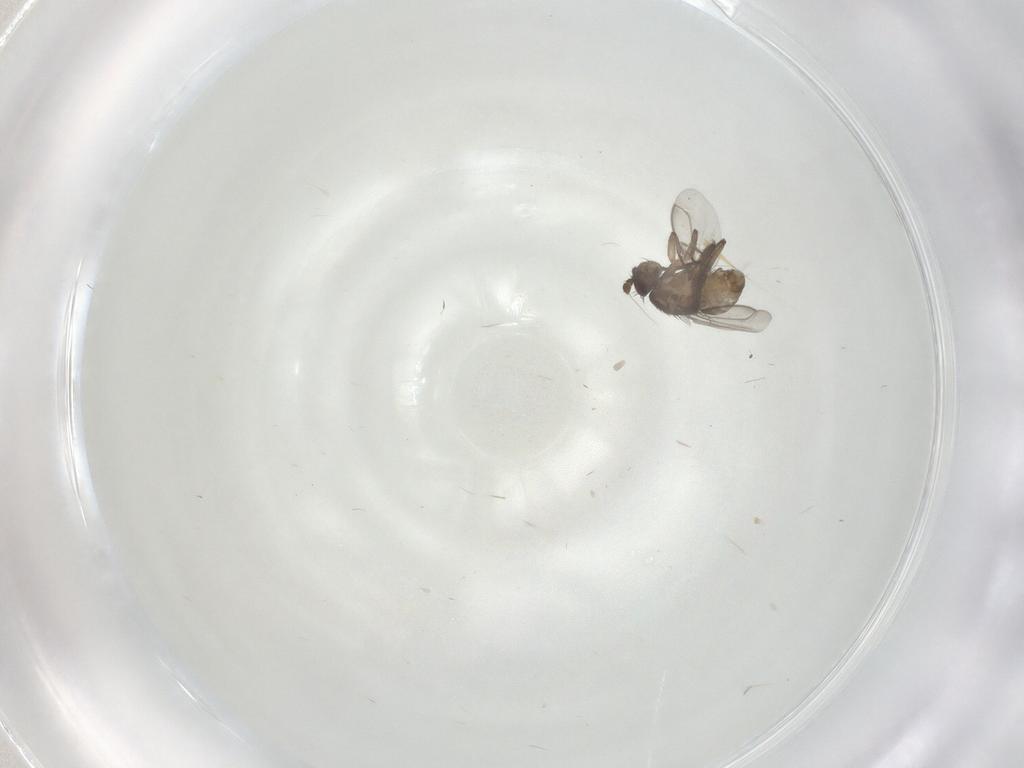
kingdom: Animalia
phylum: Arthropoda
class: Insecta
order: Diptera
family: Sphaeroceridae
